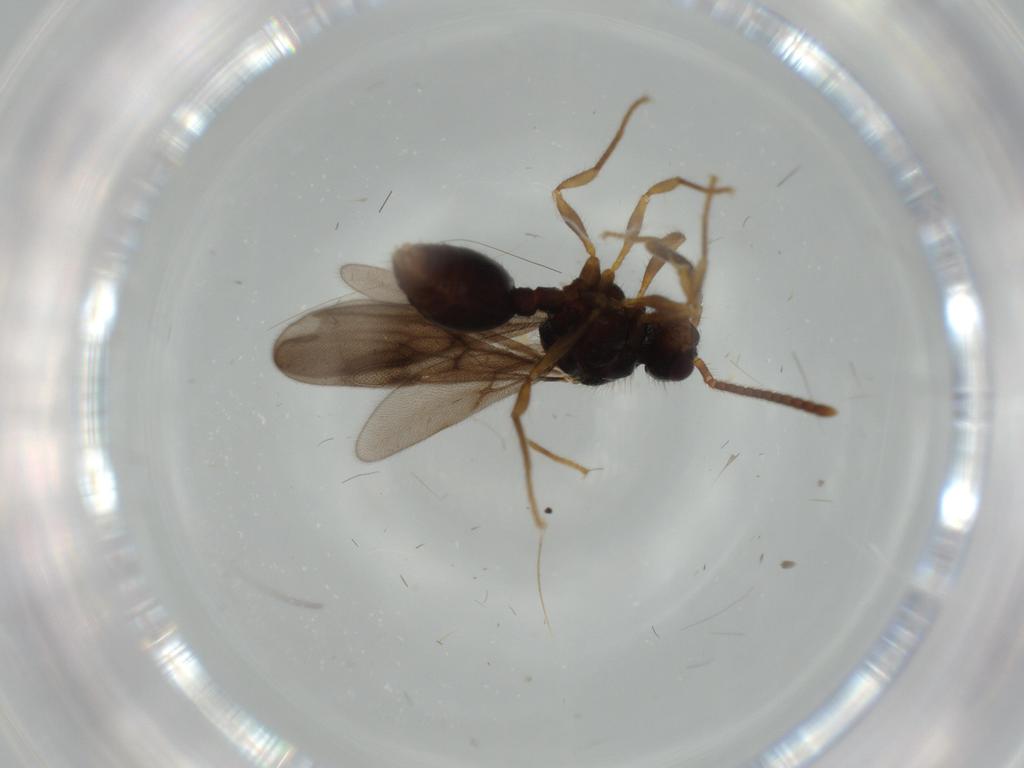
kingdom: Animalia
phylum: Arthropoda
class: Insecta
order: Hymenoptera
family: Formicidae
